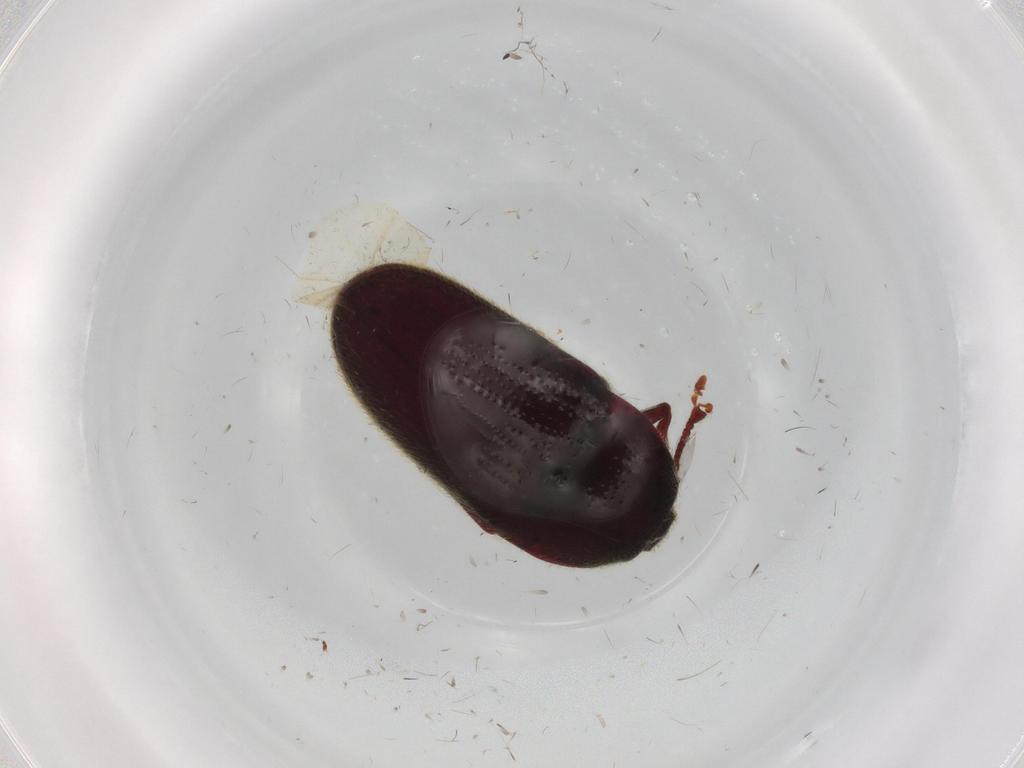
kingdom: Animalia
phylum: Arthropoda
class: Insecta
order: Coleoptera
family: Throscidae
